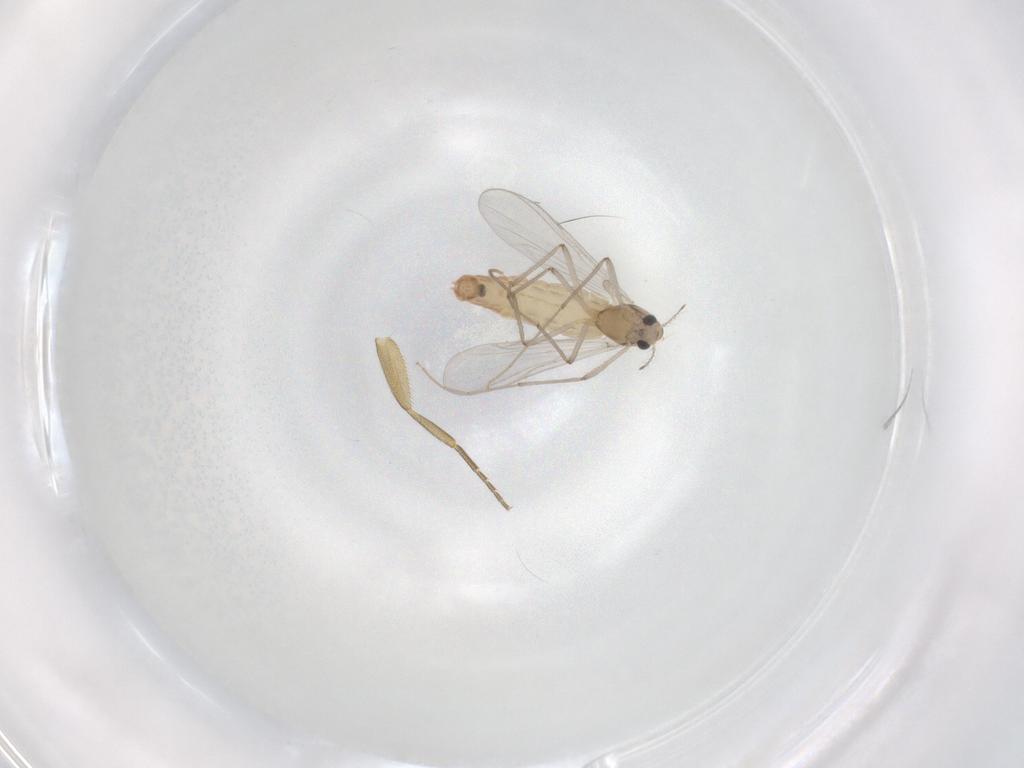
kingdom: Animalia
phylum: Arthropoda
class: Insecta
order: Diptera
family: Chironomidae
